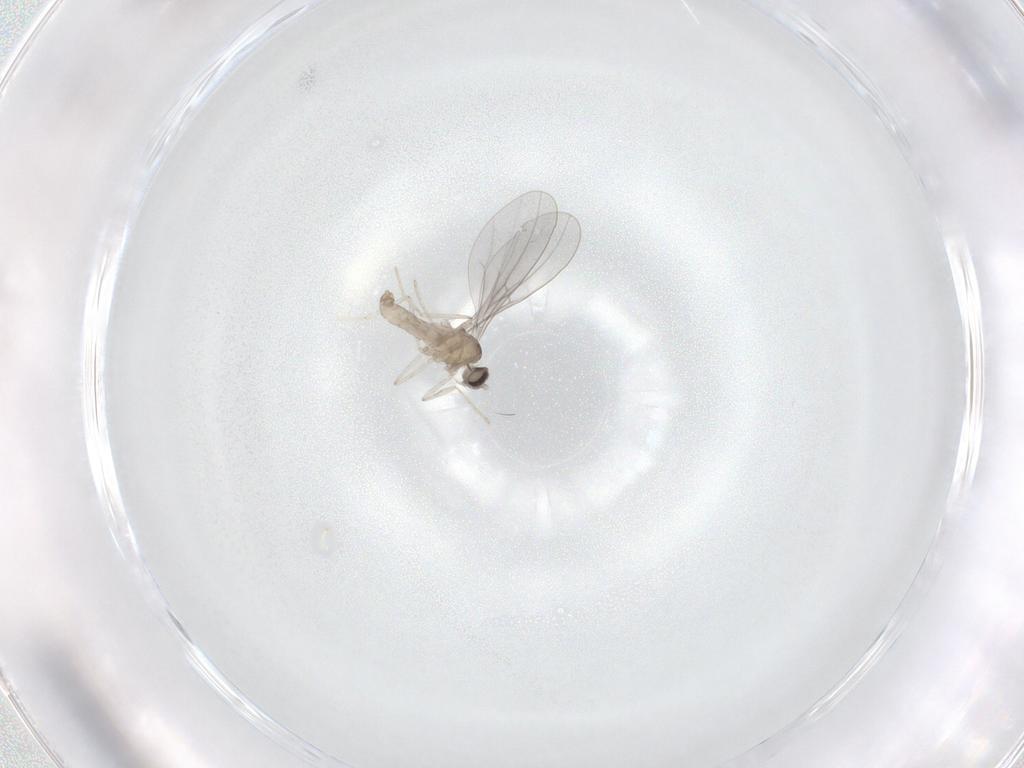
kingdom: Animalia
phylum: Arthropoda
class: Insecta
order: Diptera
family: Cecidomyiidae
